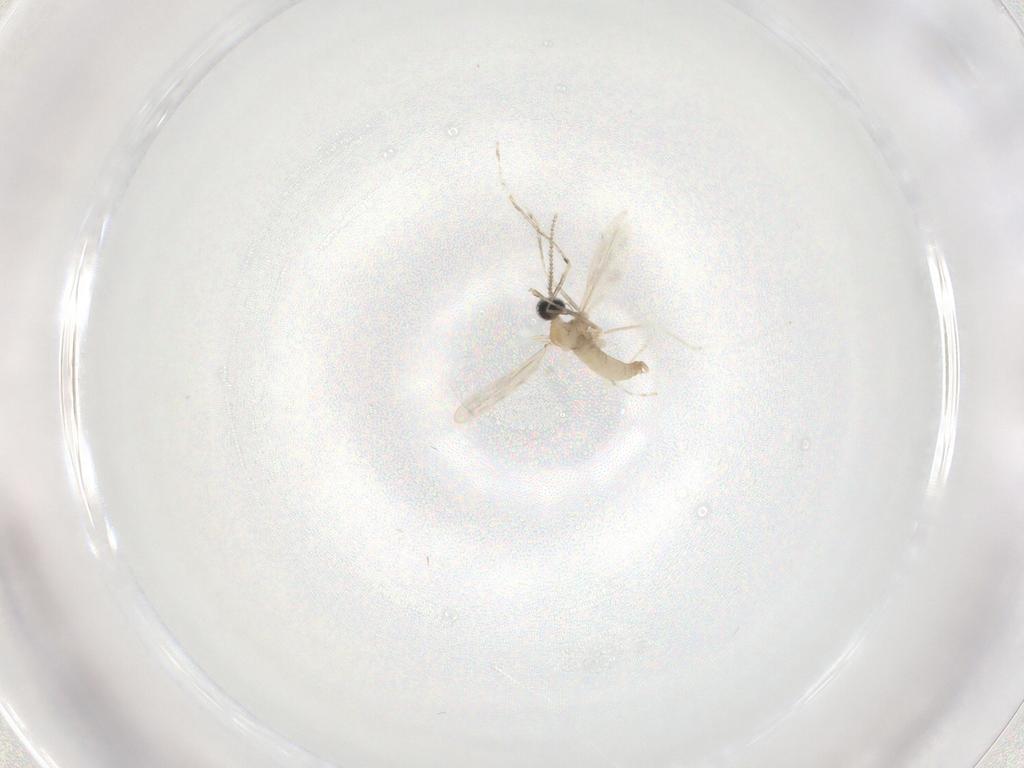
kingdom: Animalia
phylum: Arthropoda
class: Insecta
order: Diptera
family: Cecidomyiidae
